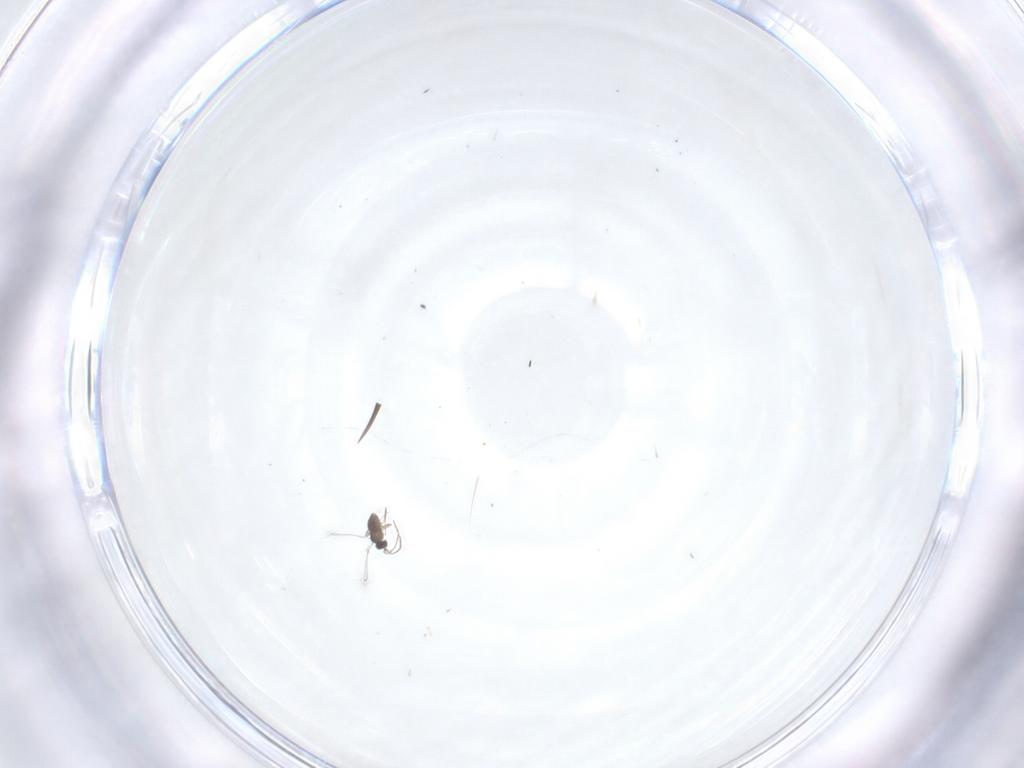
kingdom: Animalia
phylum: Arthropoda
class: Insecta
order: Hymenoptera
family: Mymaridae
